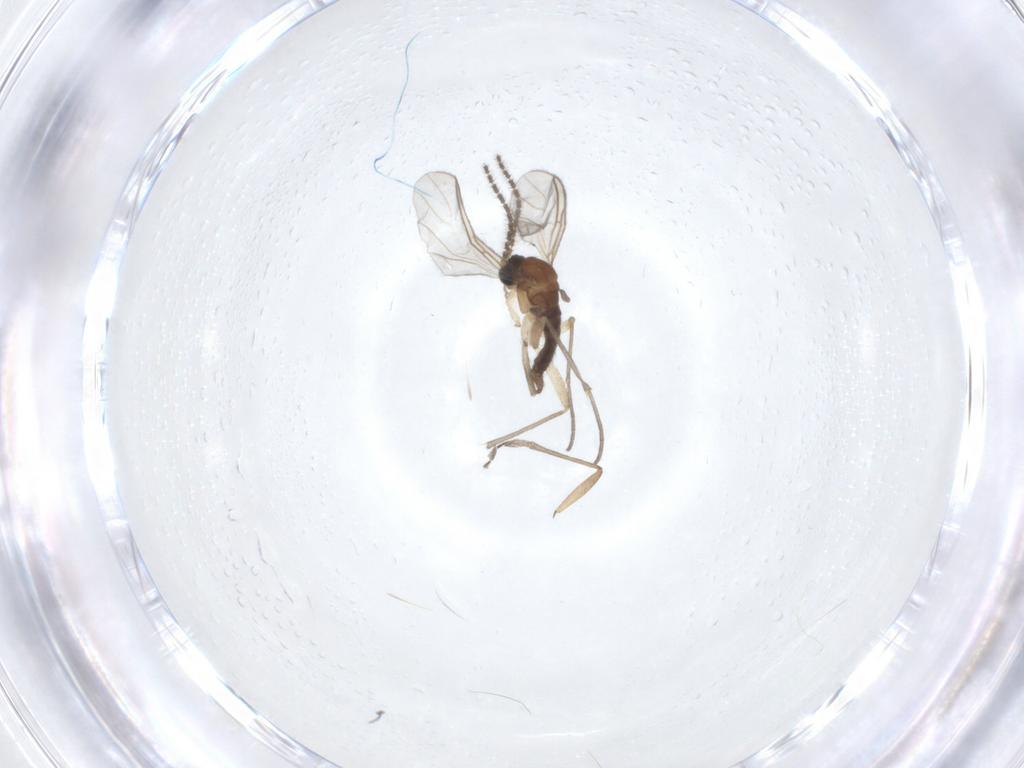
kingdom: Animalia
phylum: Arthropoda
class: Insecta
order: Diptera
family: Sciaridae
